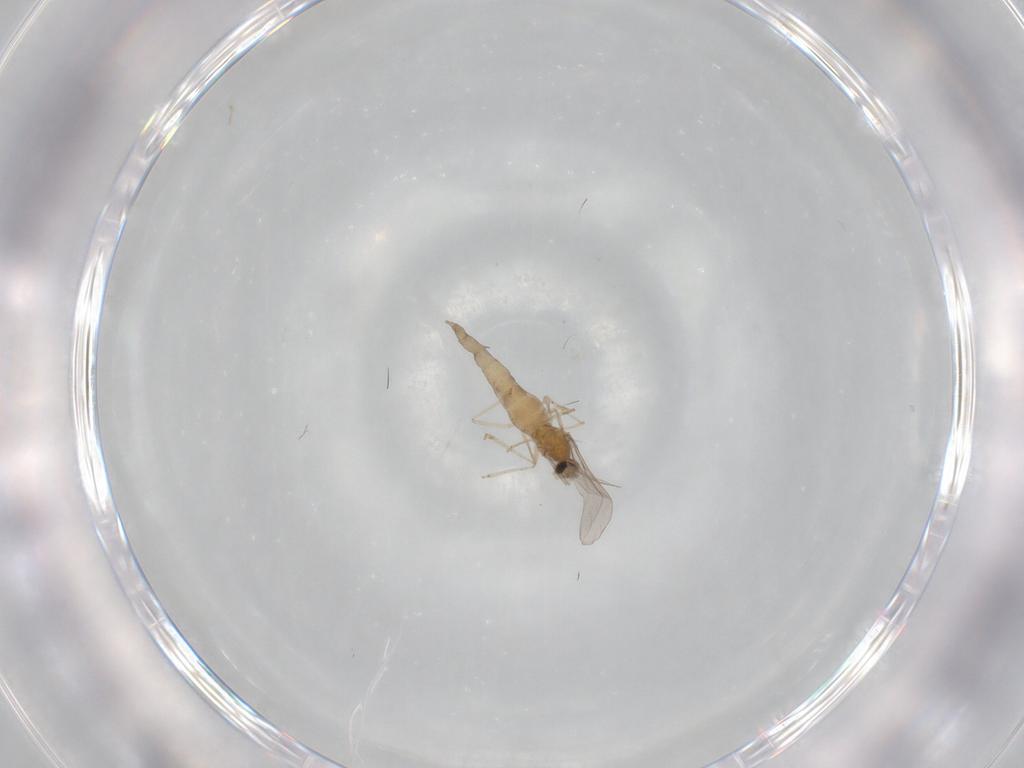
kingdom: Animalia
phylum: Arthropoda
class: Insecta
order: Diptera
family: Cecidomyiidae
